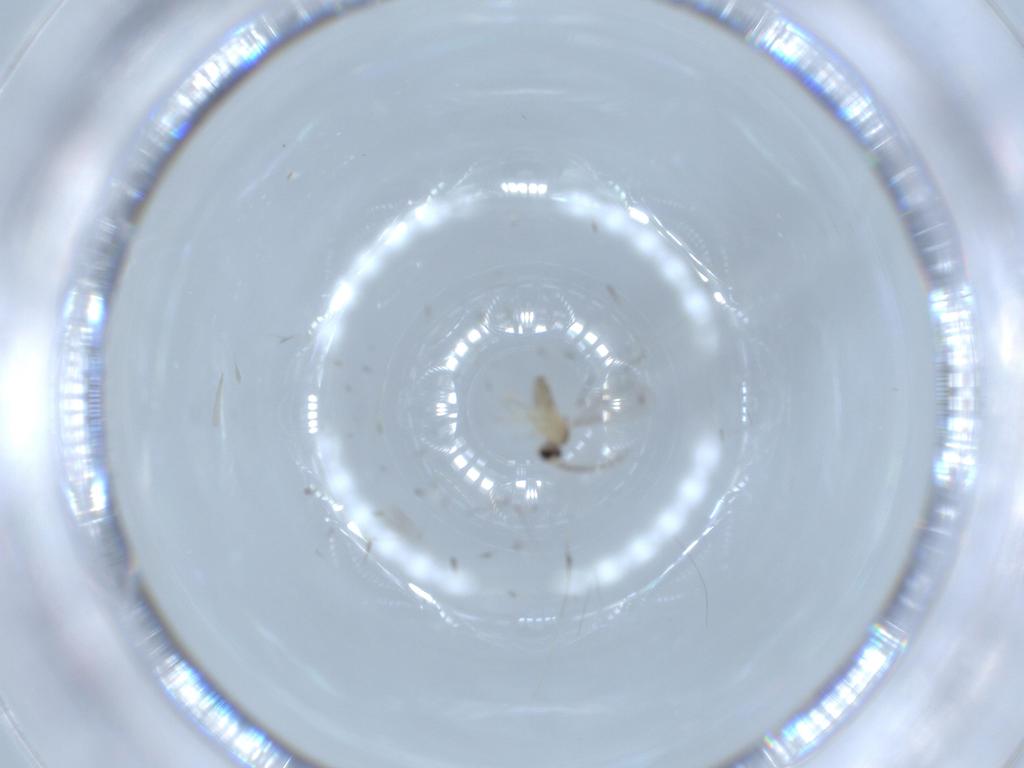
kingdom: Animalia
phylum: Arthropoda
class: Insecta
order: Diptera
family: Cecidomyiidae
